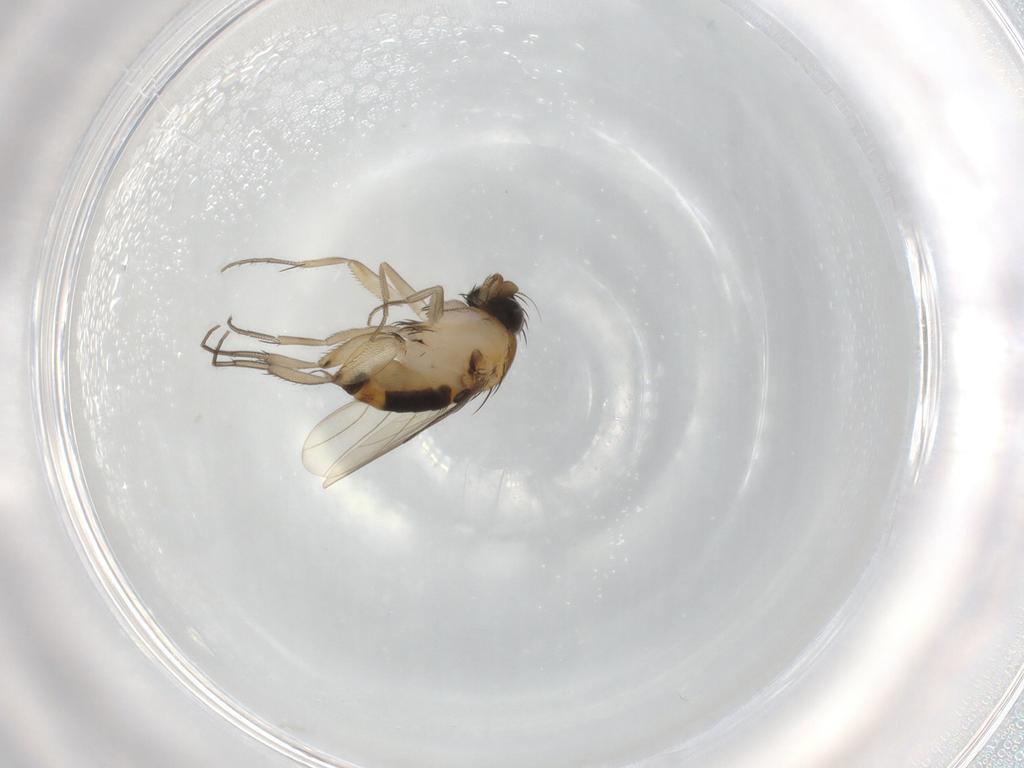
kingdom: Animalia
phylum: Arthropoda
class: Insecta
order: Diptera
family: Phoridae
